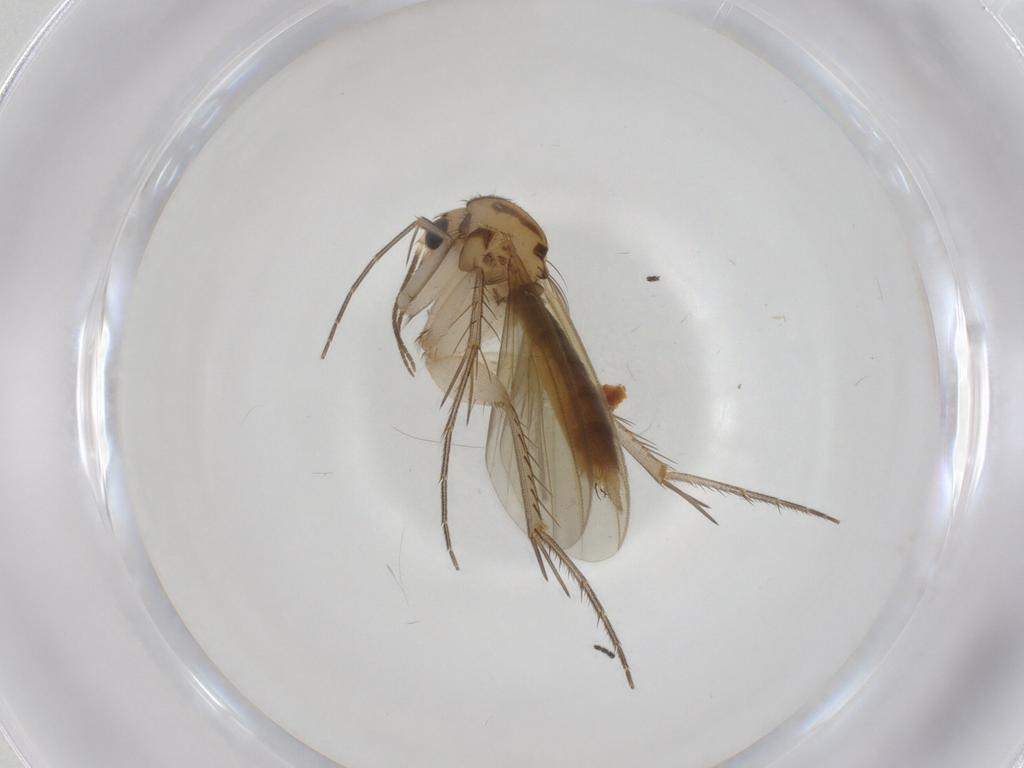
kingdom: Animalia
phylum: Arthropoda
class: Insecta
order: Diptera
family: Mycetophilidae
